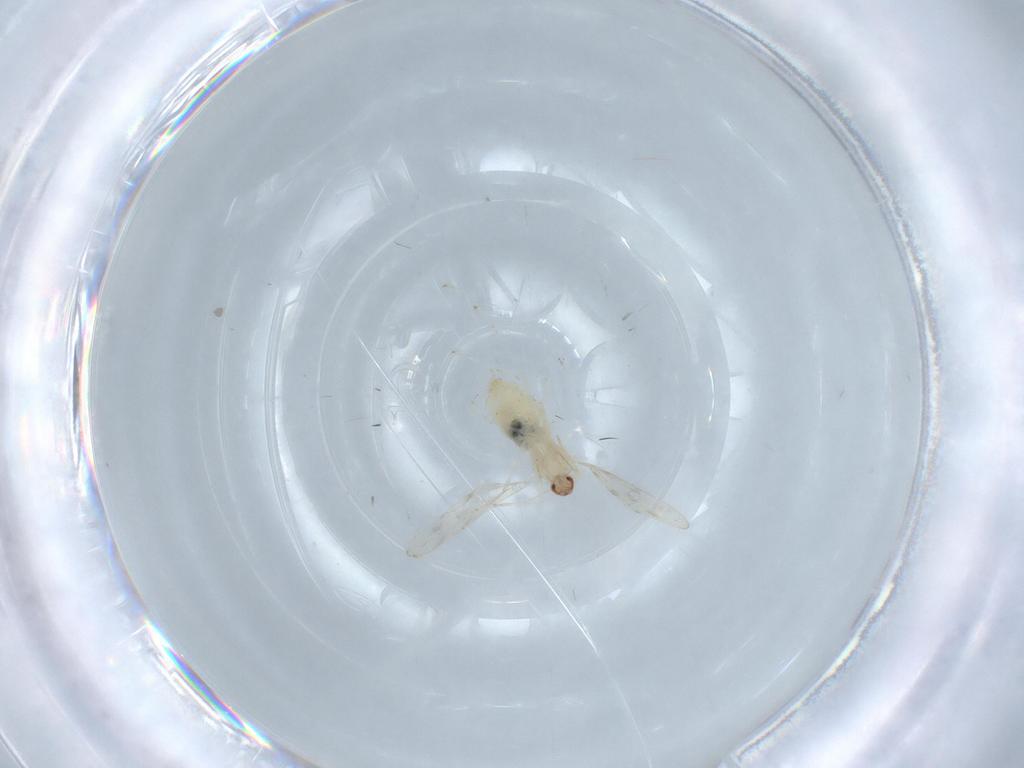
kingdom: Animalia
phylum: Arthropoda
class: Insecta
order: Diptera
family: Cecidomyiidae
